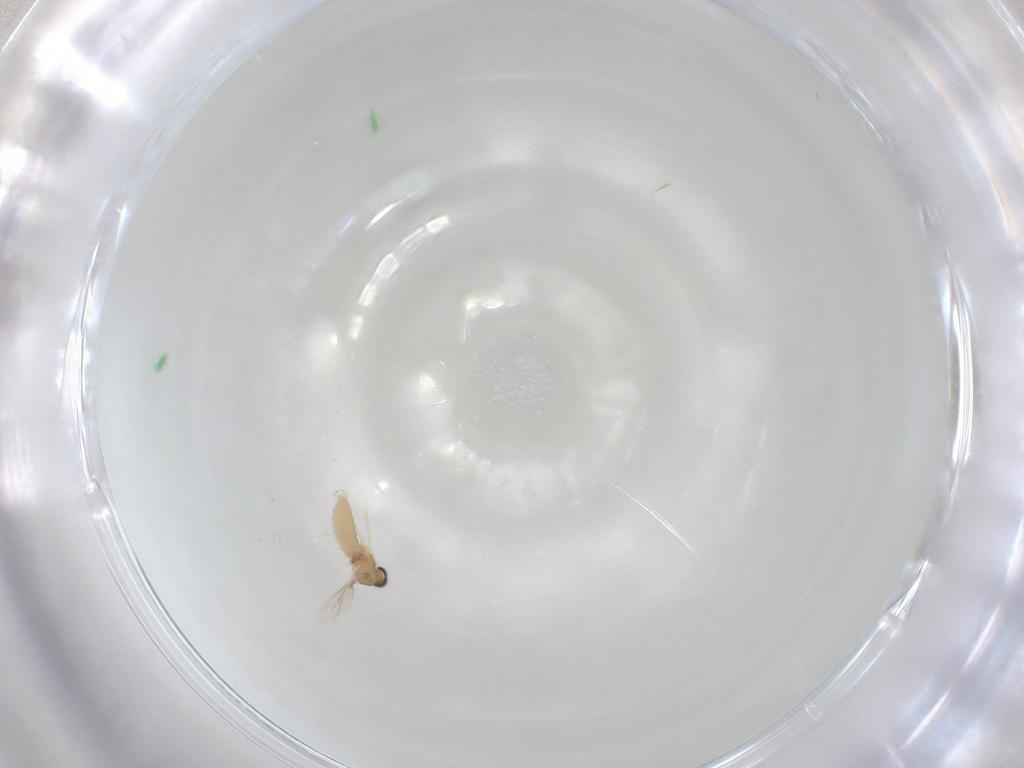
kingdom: Animalia
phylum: Arthropoda
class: Insecta
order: Diptera
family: Cecidomyiidae
